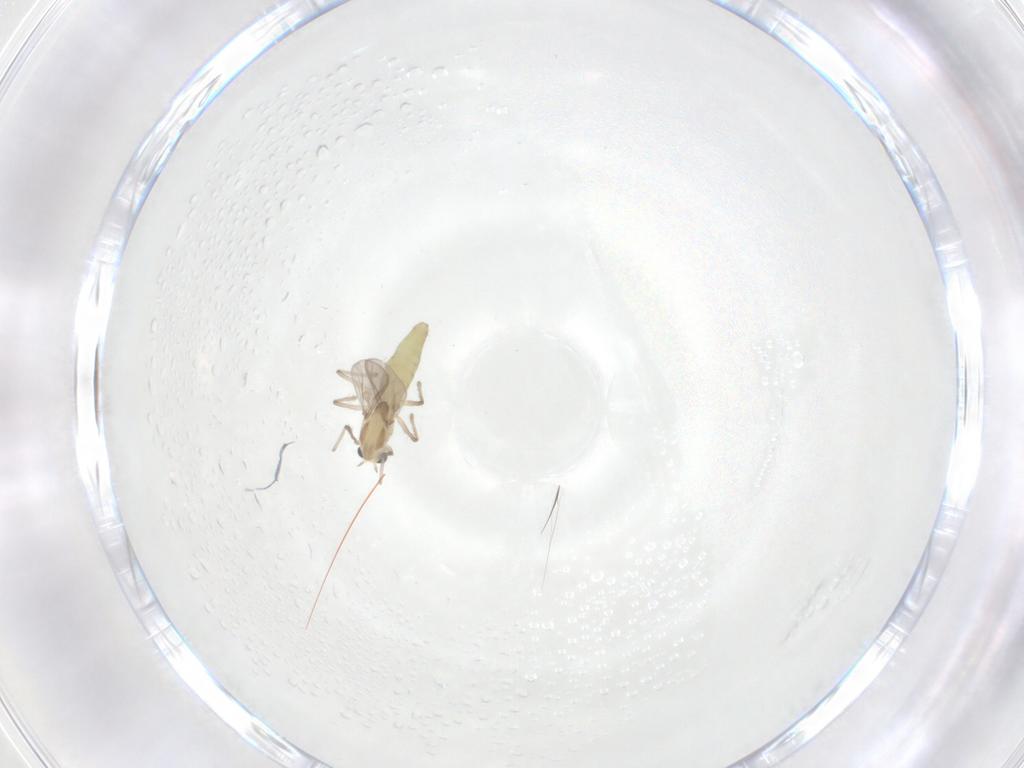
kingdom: Animalia
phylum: Arthropoda
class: Insecta
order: Diptera
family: Chironomidae
